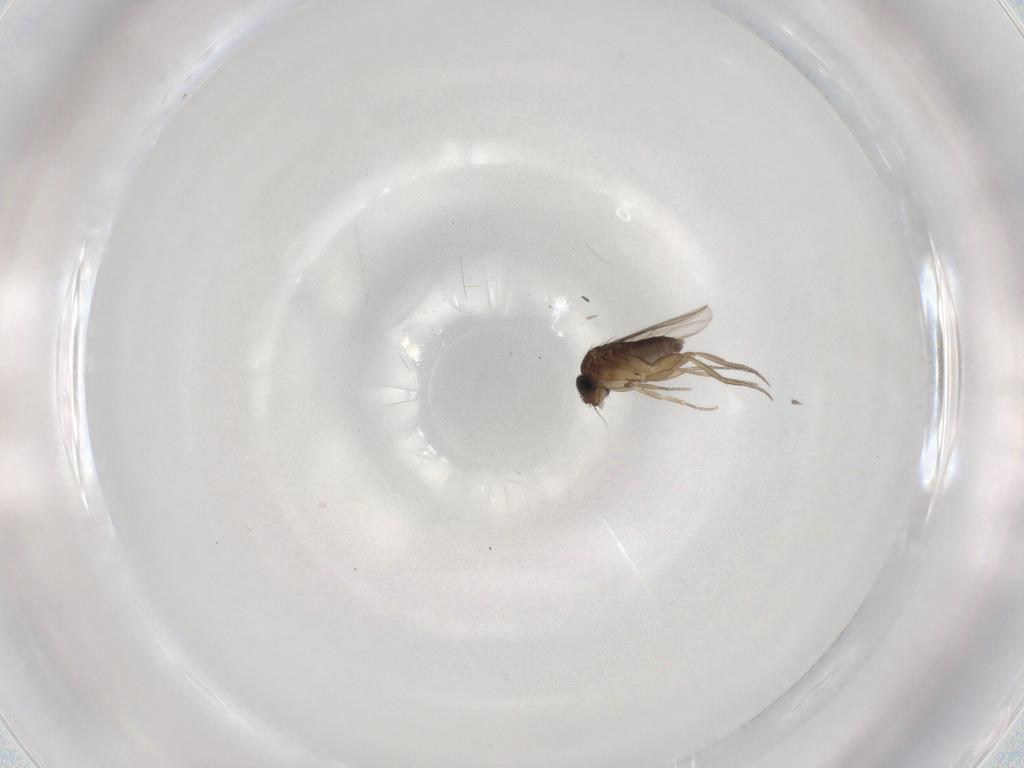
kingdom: Animalia
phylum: Arthropoda
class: Insecta
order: Diptera
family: Phoridae
